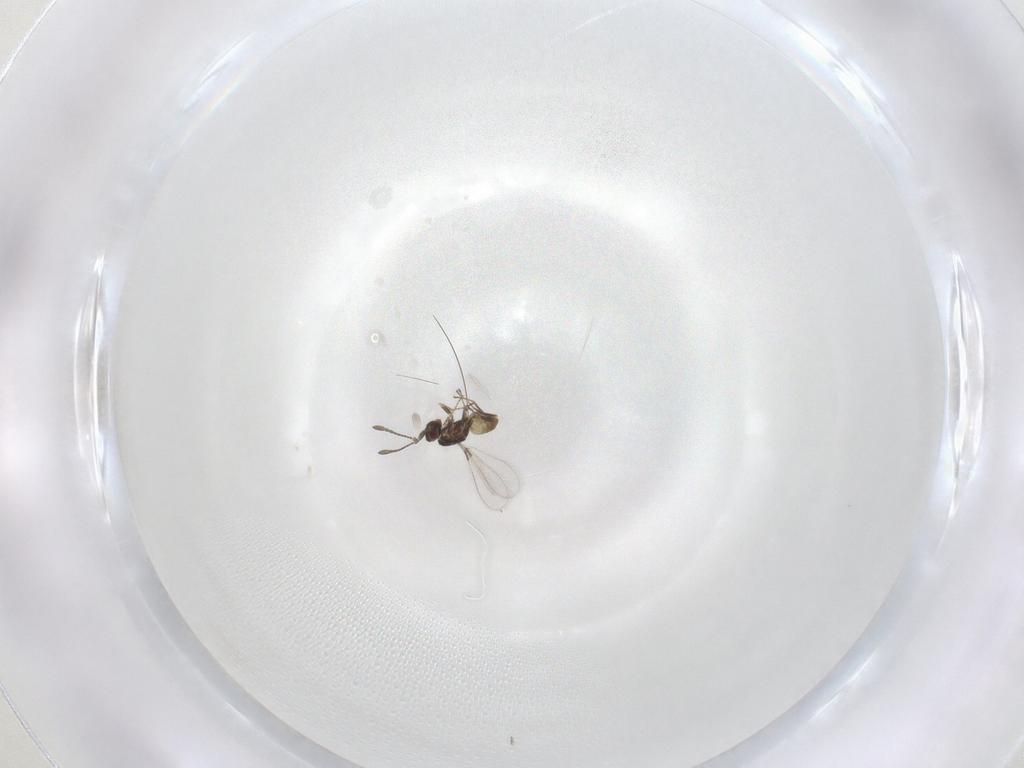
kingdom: Animalia
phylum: Arthropoda
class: Insecta
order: Hymenoptera
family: Mymaridae
